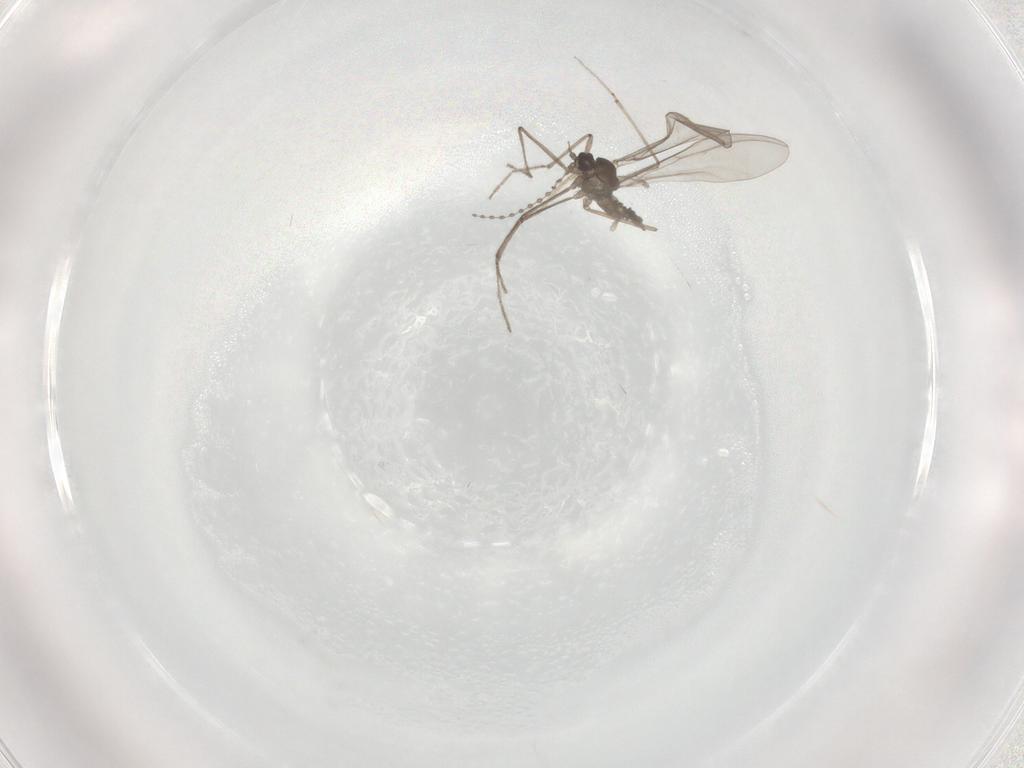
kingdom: Animalia
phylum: Arthropoda
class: Insecta
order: Diptera
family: Cecidomyiidae
